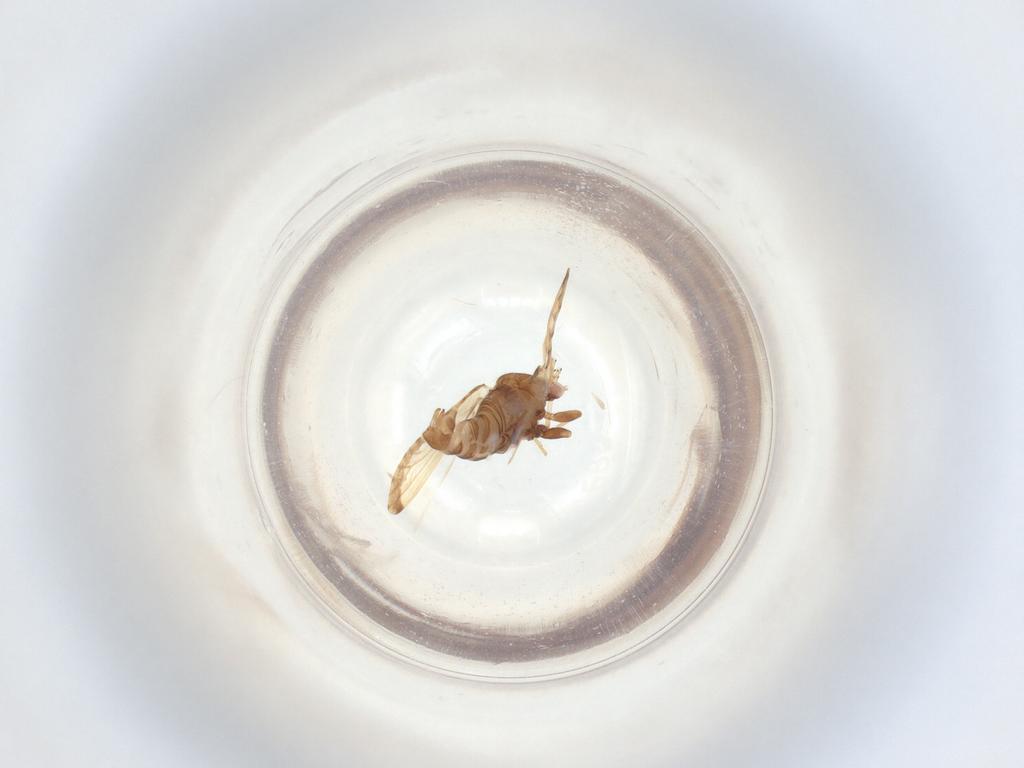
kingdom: Animalia
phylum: Arthropoda
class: Insecta
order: Hemiptera
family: Psyllidae
